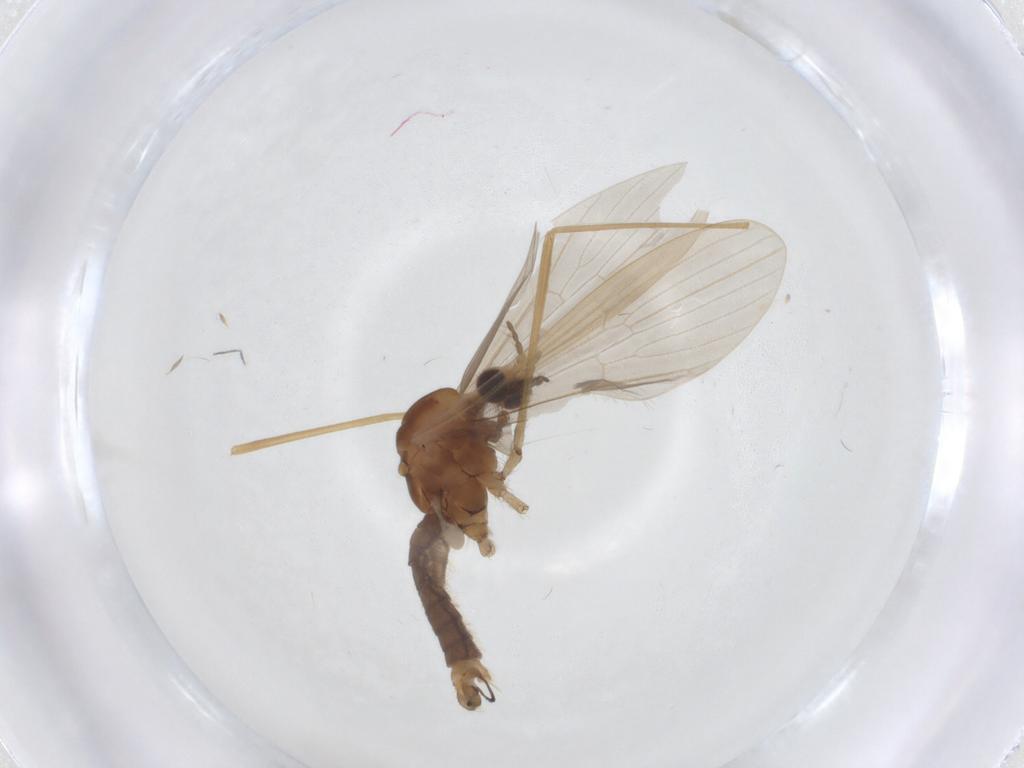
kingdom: Animalia
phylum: Arthropoda
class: Insecta
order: Diptera
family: Limoniidae
